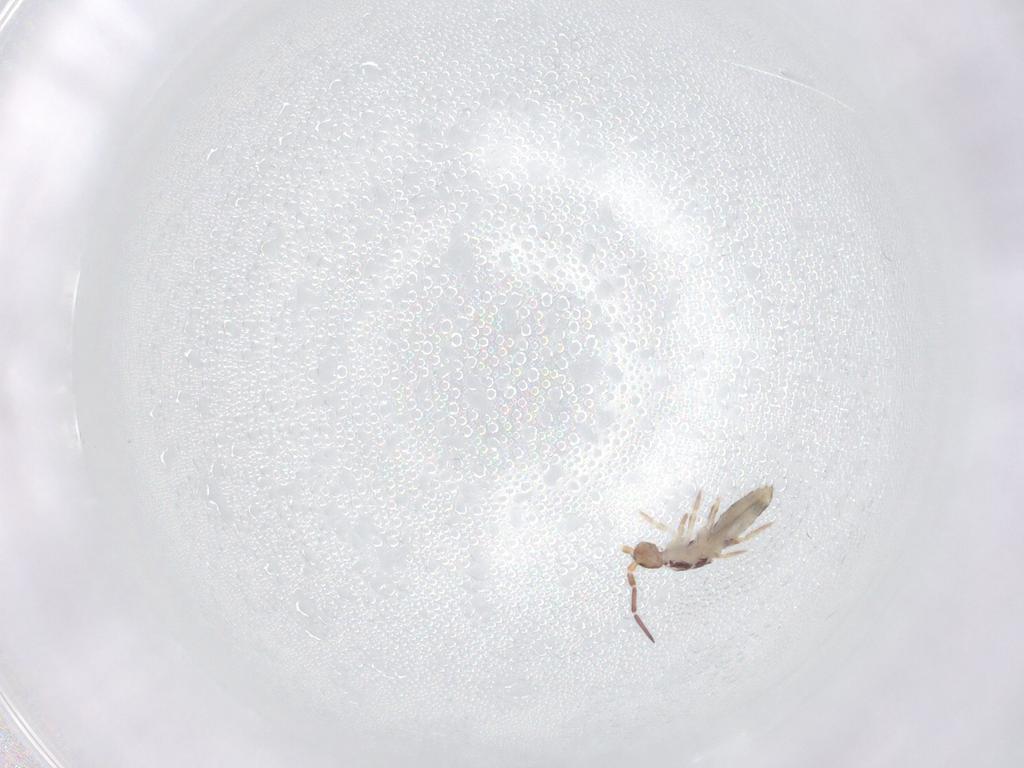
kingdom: Animalia
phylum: Arthropoda
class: Collembola
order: Entomobryomorpha
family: Entomobryidae
